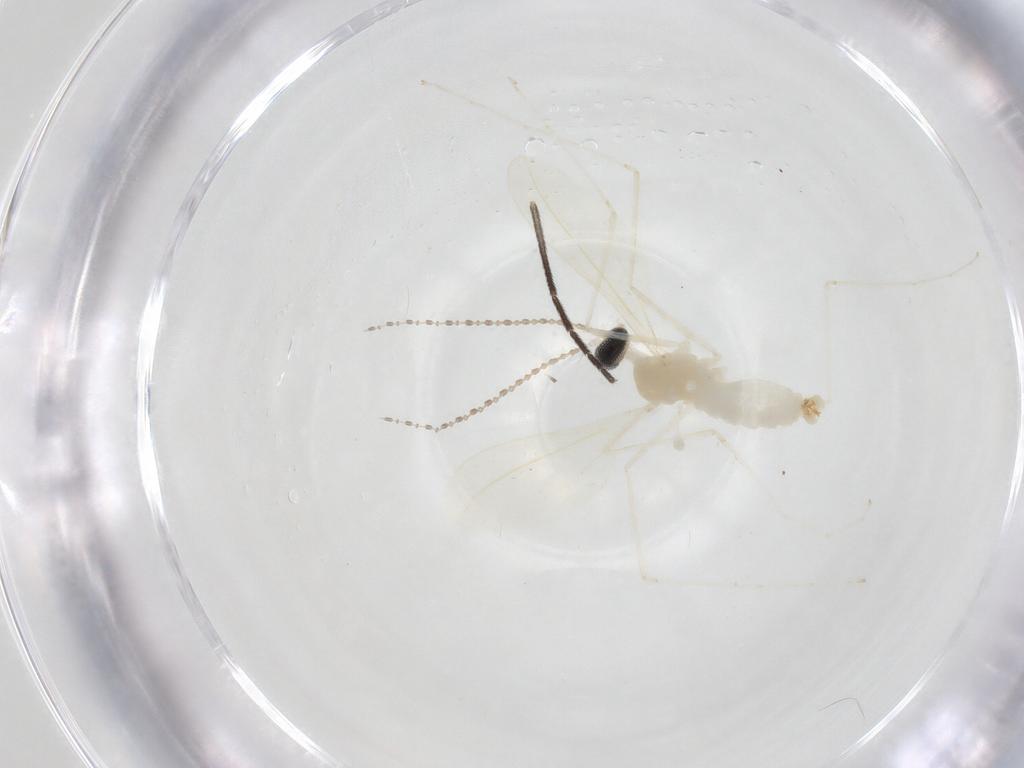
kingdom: Animalia
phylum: Arthropoda
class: Insecta
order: Diptera
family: Cecidomyiidae
